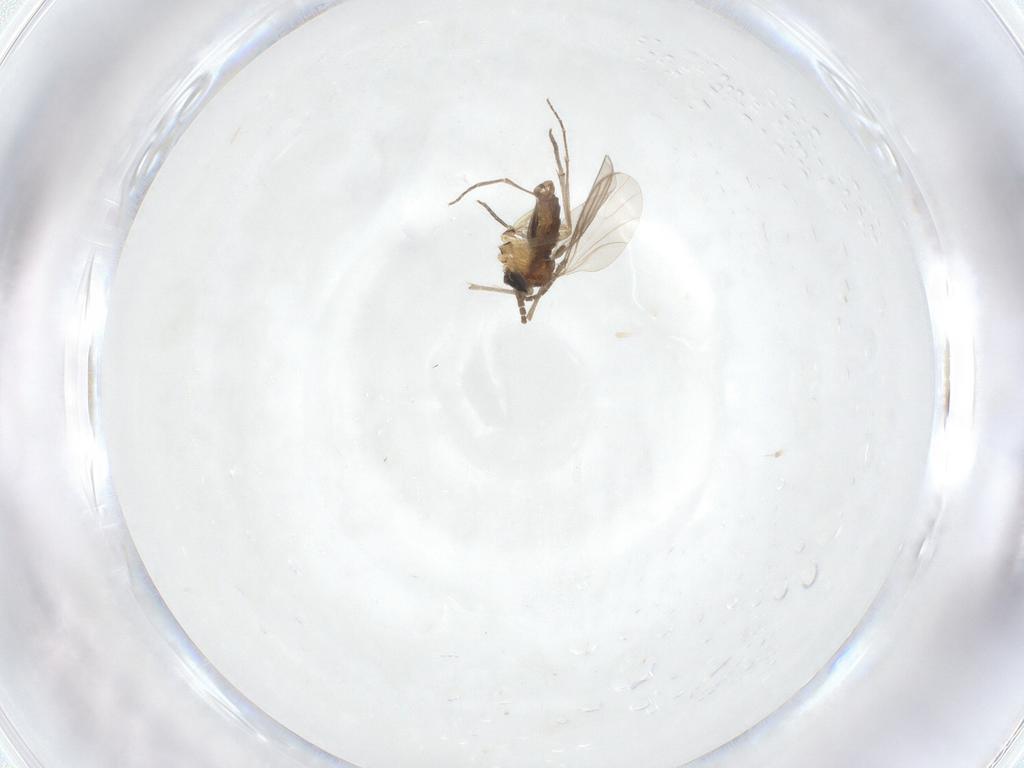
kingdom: Animalia
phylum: Arthropoda
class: Insecta
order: Diptera
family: Sciaridae
